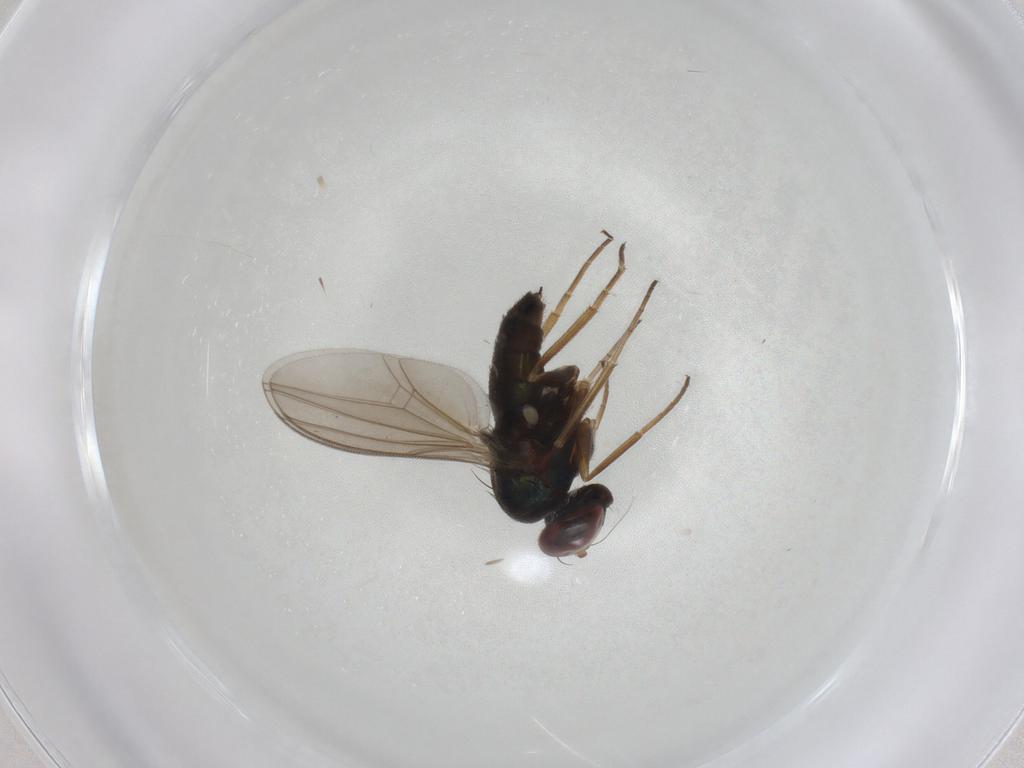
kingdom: Animalia
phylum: Arthropoda
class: Insecta
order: Diptera
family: Dolichopodidae
